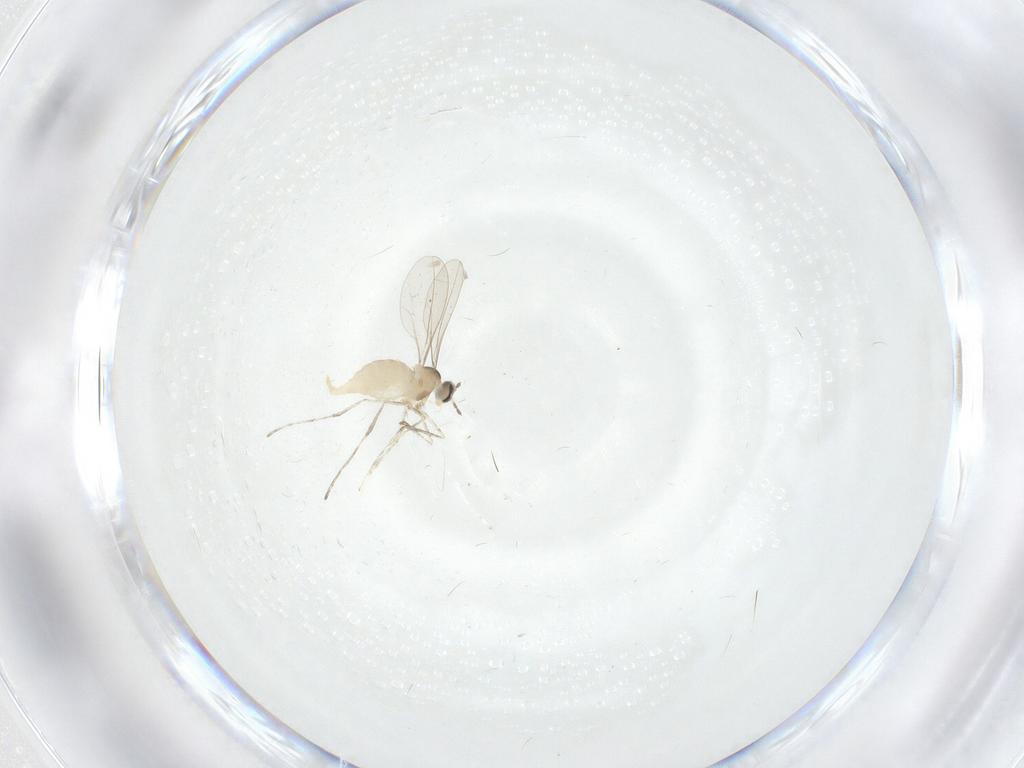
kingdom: Animalia
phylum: Arthropoda
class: Insecta
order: Diptera
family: Cecidomyiidae
